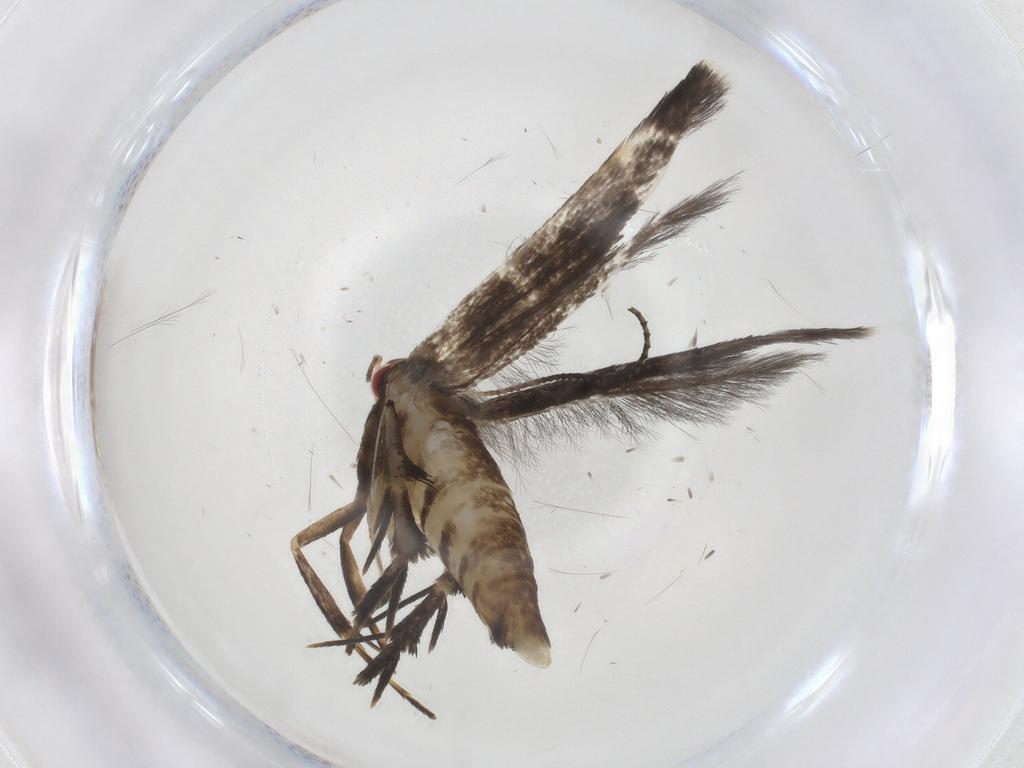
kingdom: Animalia
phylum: Arthropoda
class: Insecta
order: Lepidoptera
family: Gelechiidae
